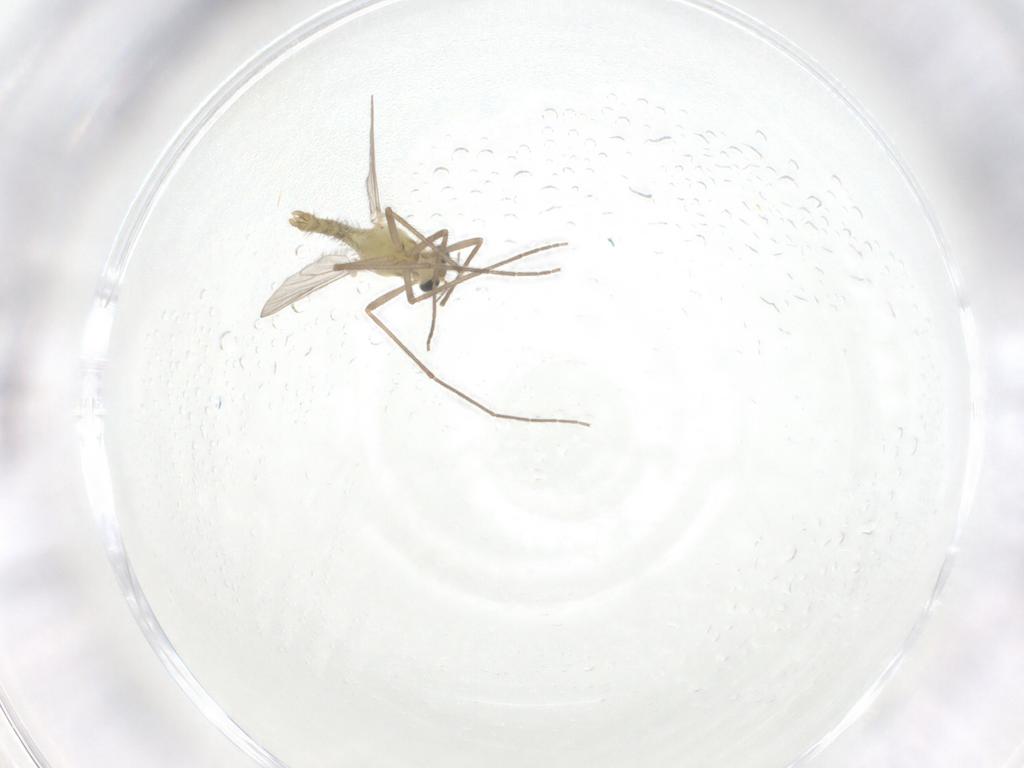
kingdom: Animalia
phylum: Arthropoda
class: Insecta
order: Diptera
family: Chironomidae
